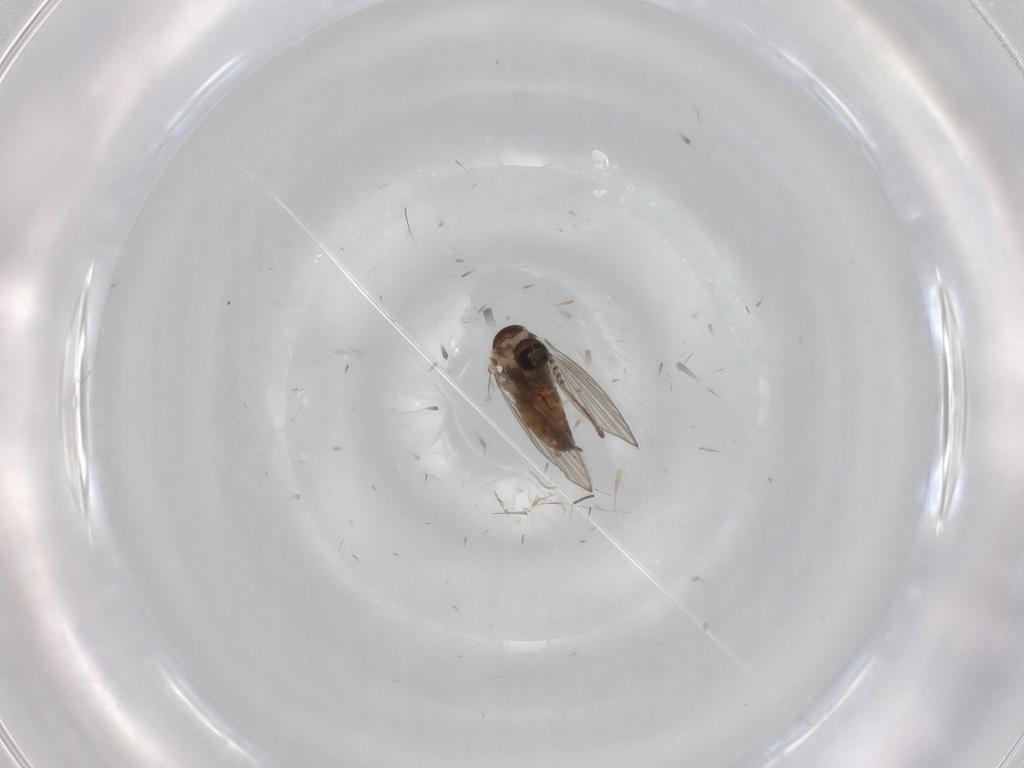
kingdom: Animalia
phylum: Arthropoda
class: Insecta
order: Diptera
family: Psychodidae
